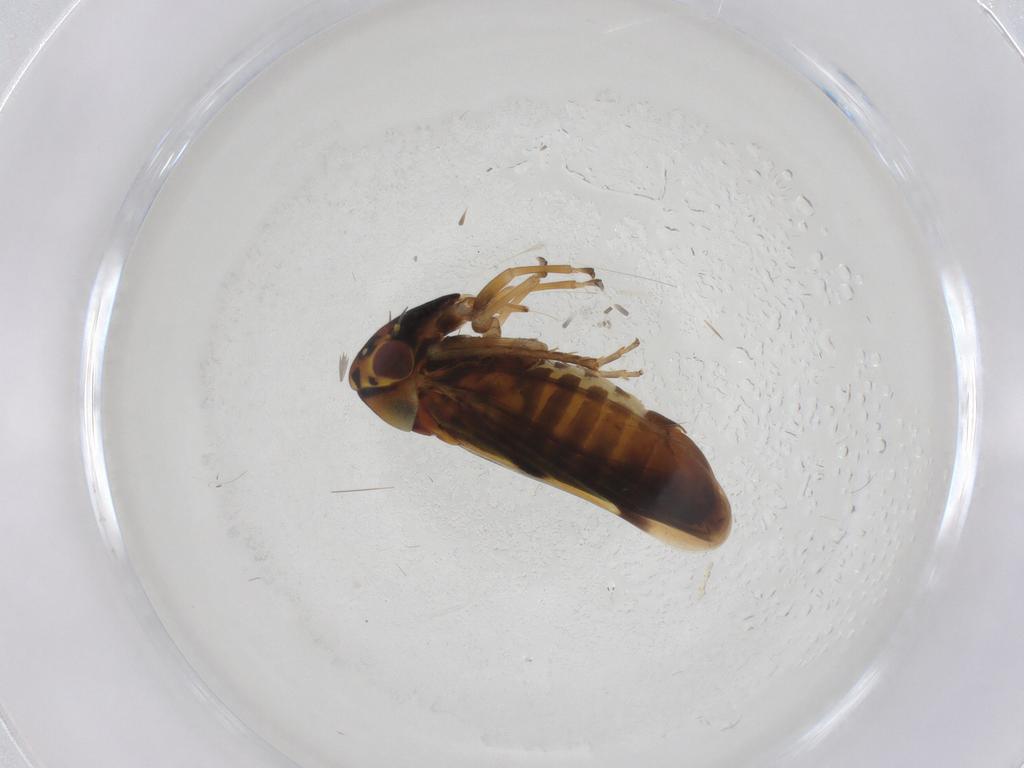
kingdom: Animalia
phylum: Arthropoda
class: Insecta
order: Hemiptera
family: Cicadellidae
